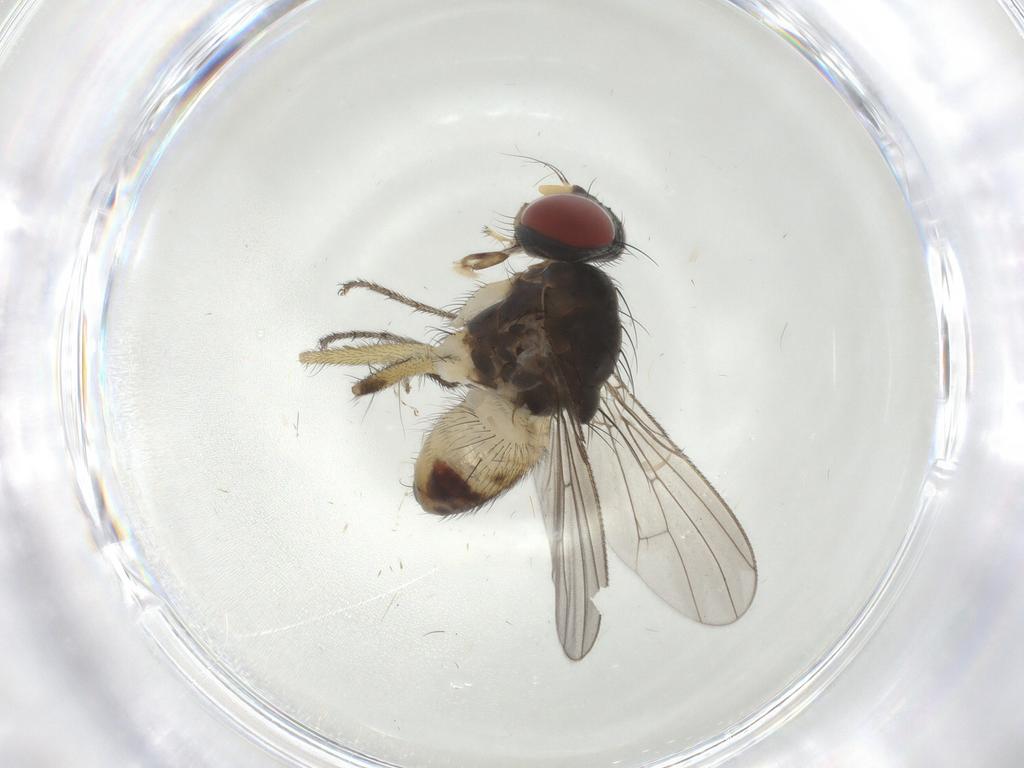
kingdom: Animalia
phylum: Arthropoda
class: Insecta
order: Diptera
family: Muscidae
